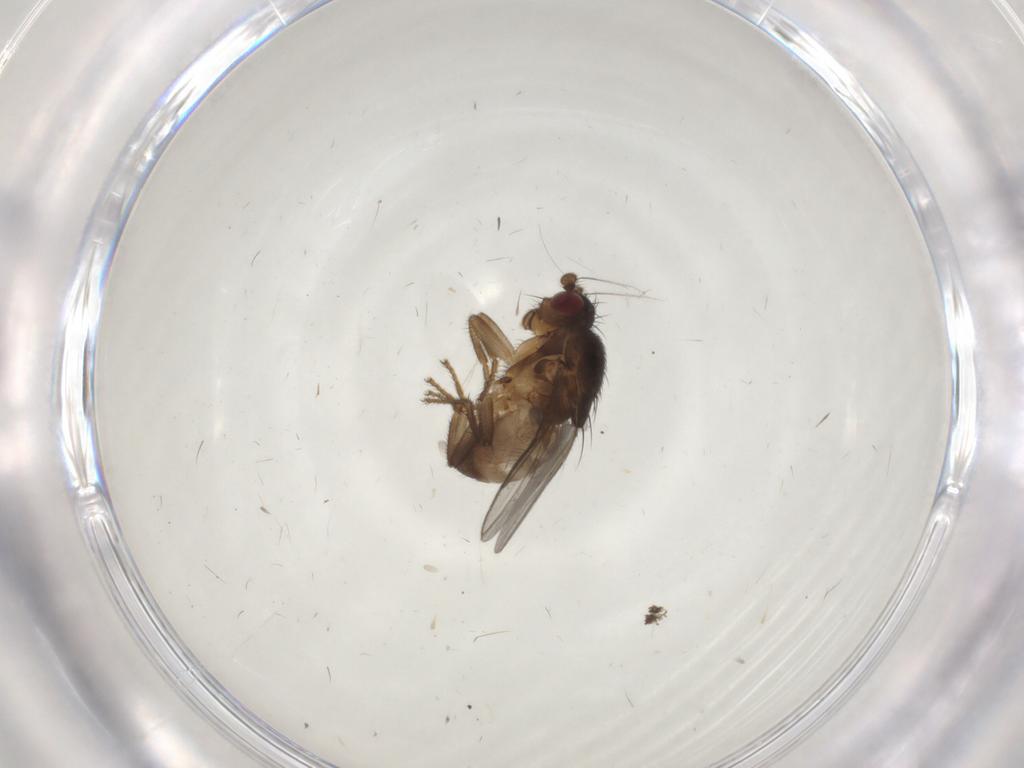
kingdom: Animalia
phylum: Arthropoda
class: Insecta
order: Diptera
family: Sphaeroceridae
